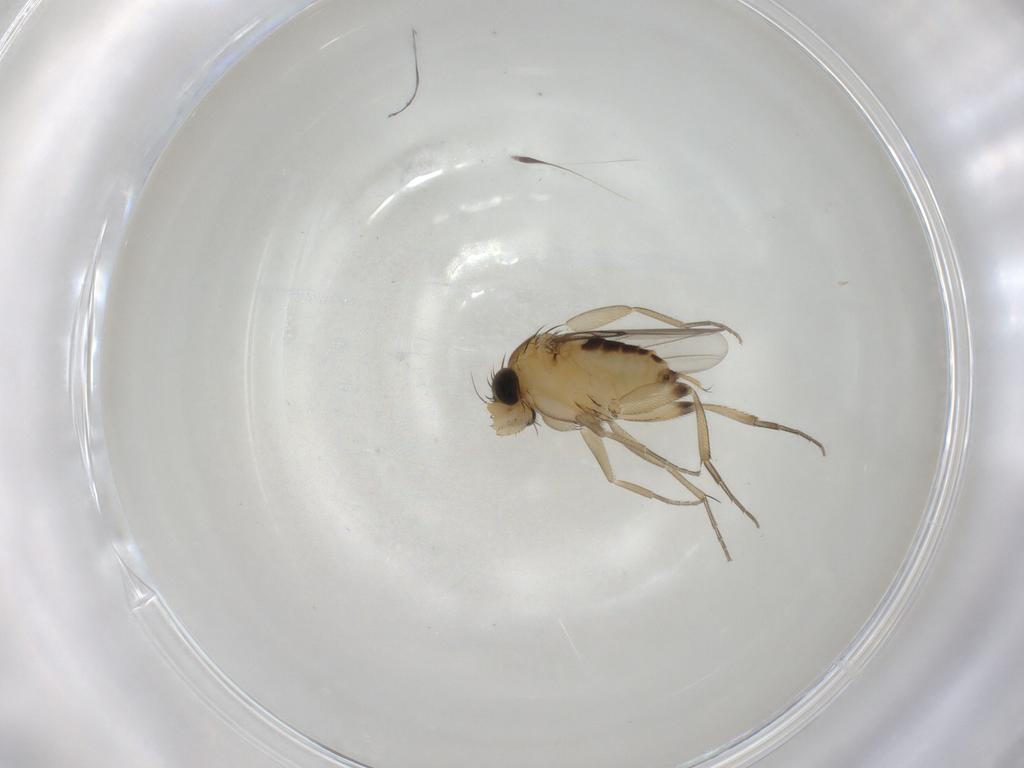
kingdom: Animalia
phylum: Arthropoda
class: Insecta
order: Diptera
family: Phoridae
